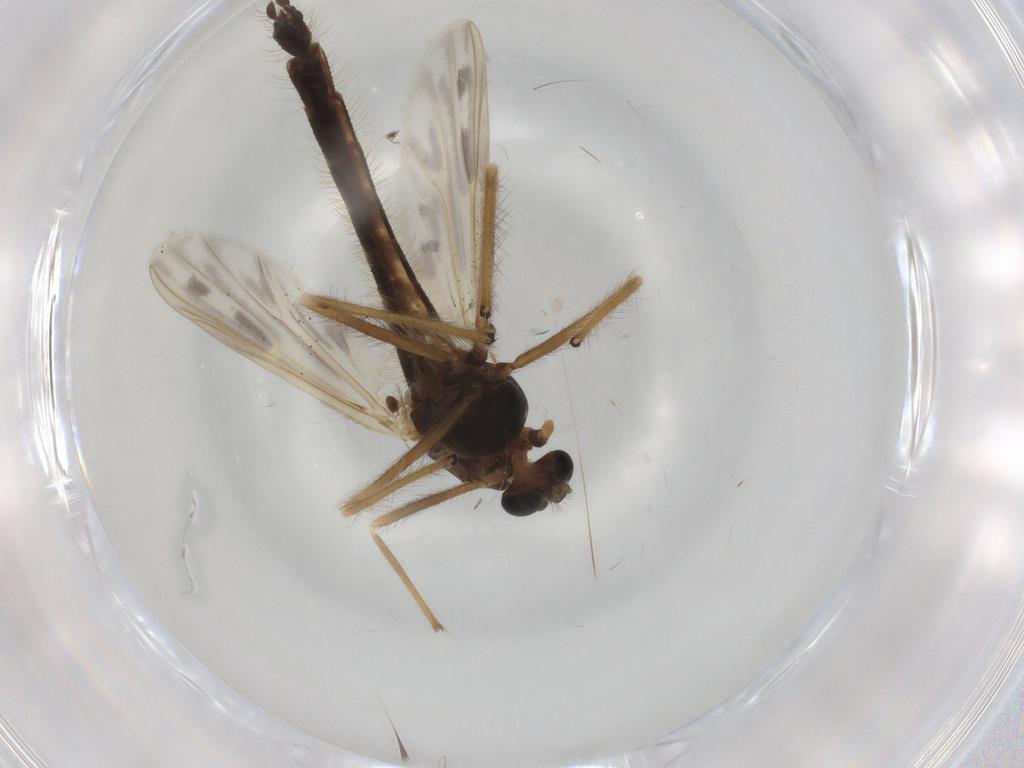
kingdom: Animalia
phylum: Arthropoda
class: Insecta
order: Diptera
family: Chironomidae
